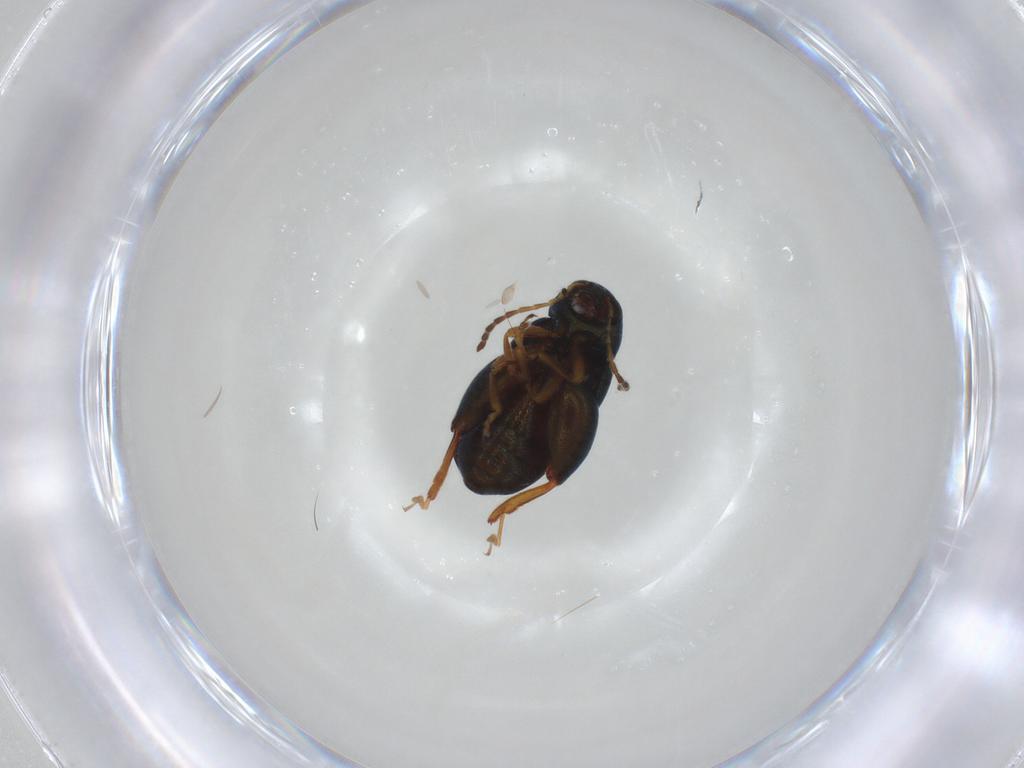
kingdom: Animalia
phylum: Arthropoda
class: Insecta
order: Coleoptera
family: Chrysomelidae
